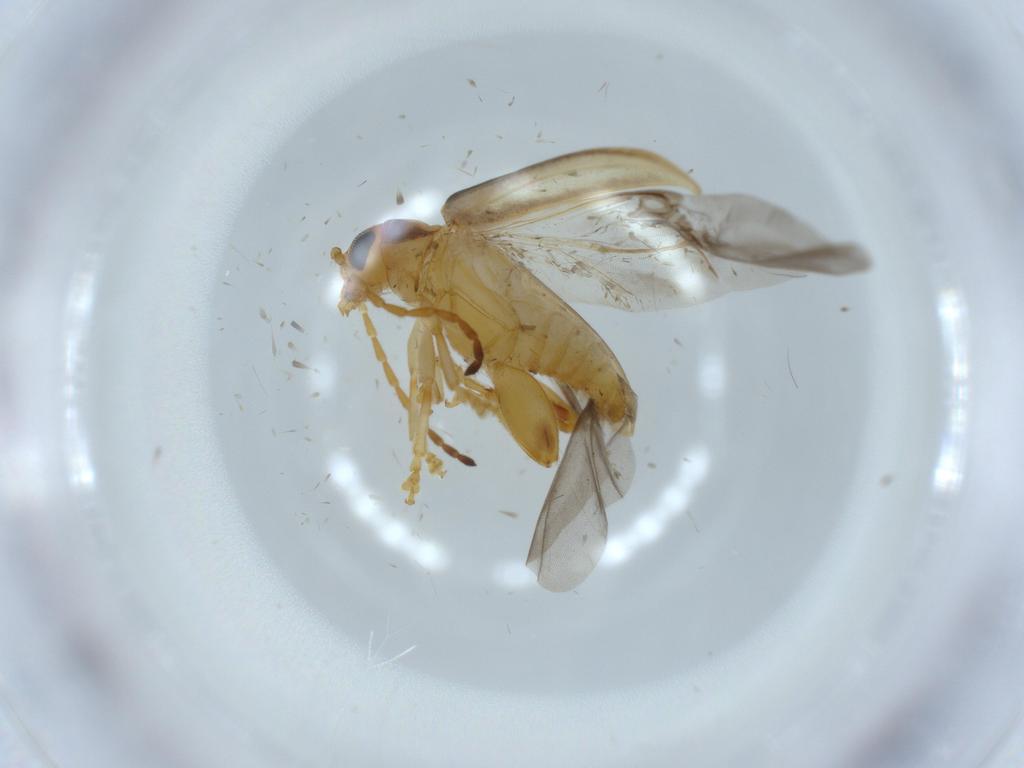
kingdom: Animalia
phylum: Arthropoda
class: Insecta
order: Coleoptera
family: Chrysomelidae
